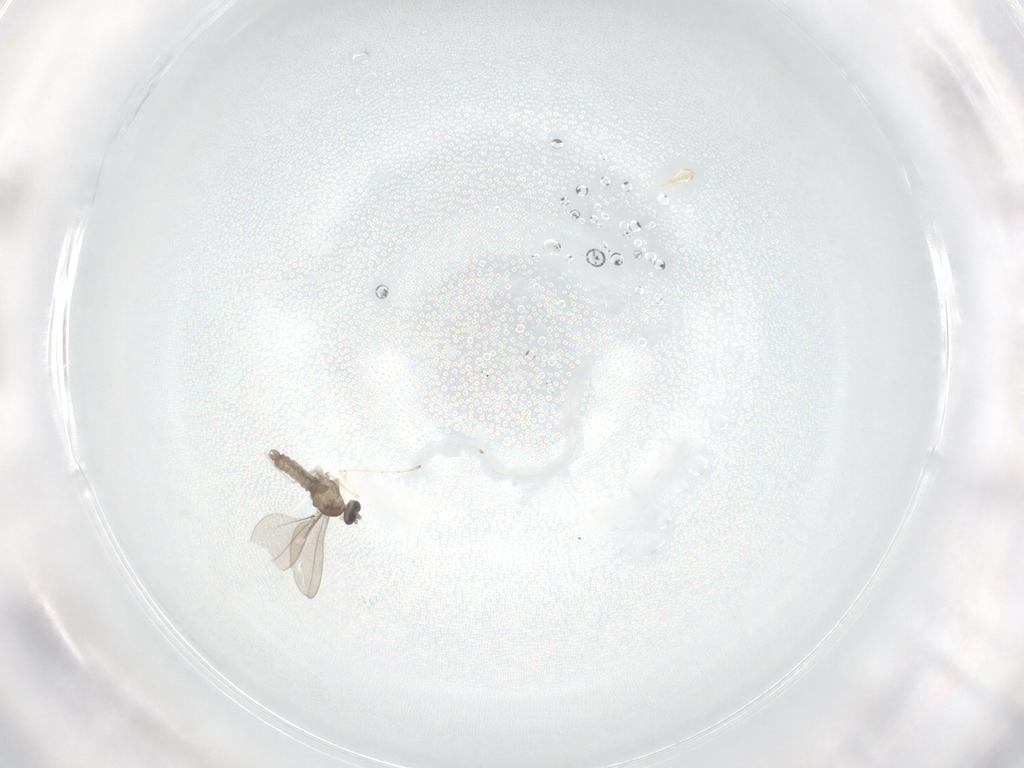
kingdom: Animalia
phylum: Arthropoda
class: Insecta
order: Diptera
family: Cecidomyiidae
